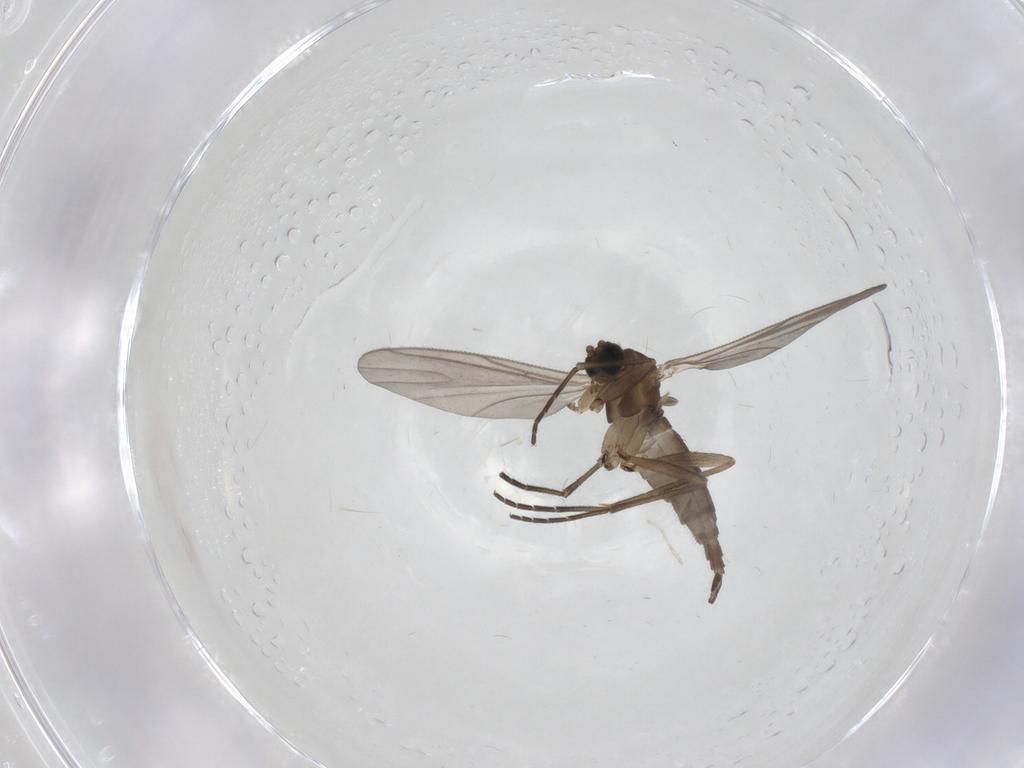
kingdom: Animalia
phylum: Arthropoda
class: Insecta
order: Diptera
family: Sciaridae
